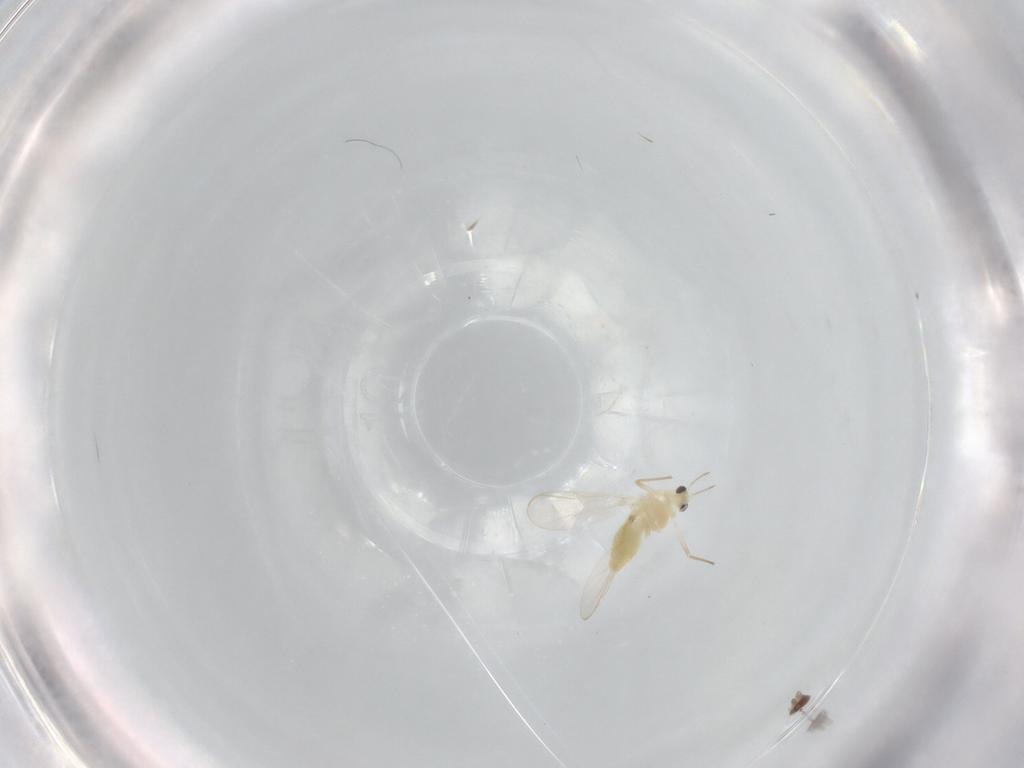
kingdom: Animalia
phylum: Arthropoda
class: Insecta
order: Diptera
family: Chironomidae
